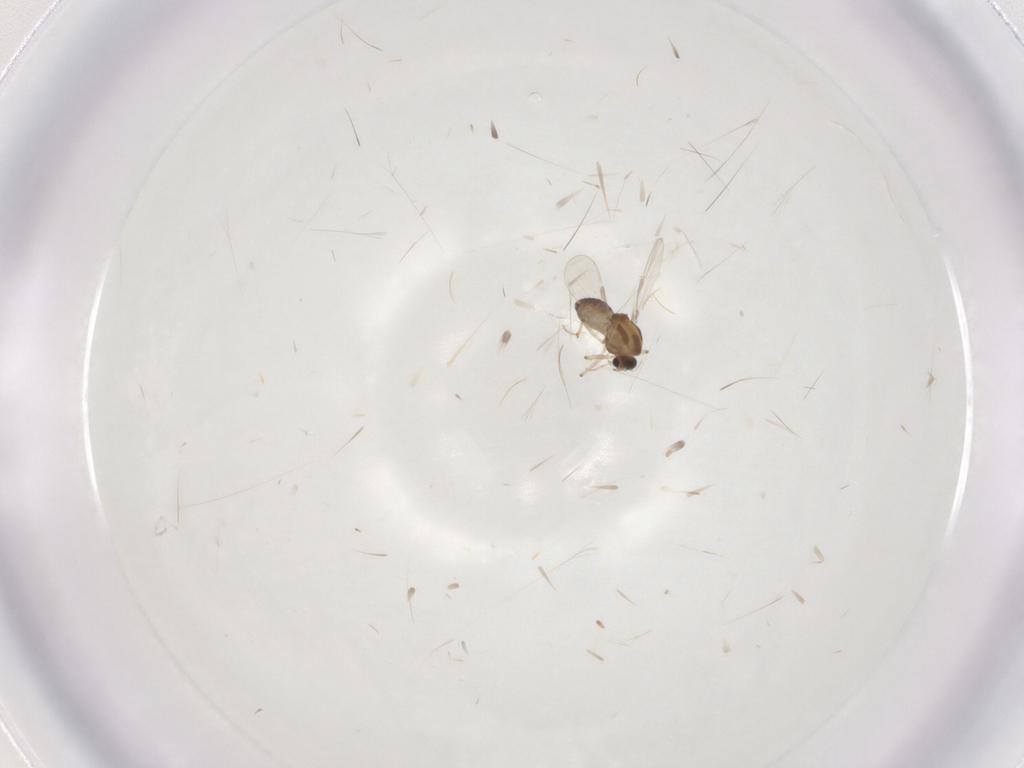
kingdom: Animalia
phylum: Arthropoda
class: Insecta
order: Diptera
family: Chironomidae
